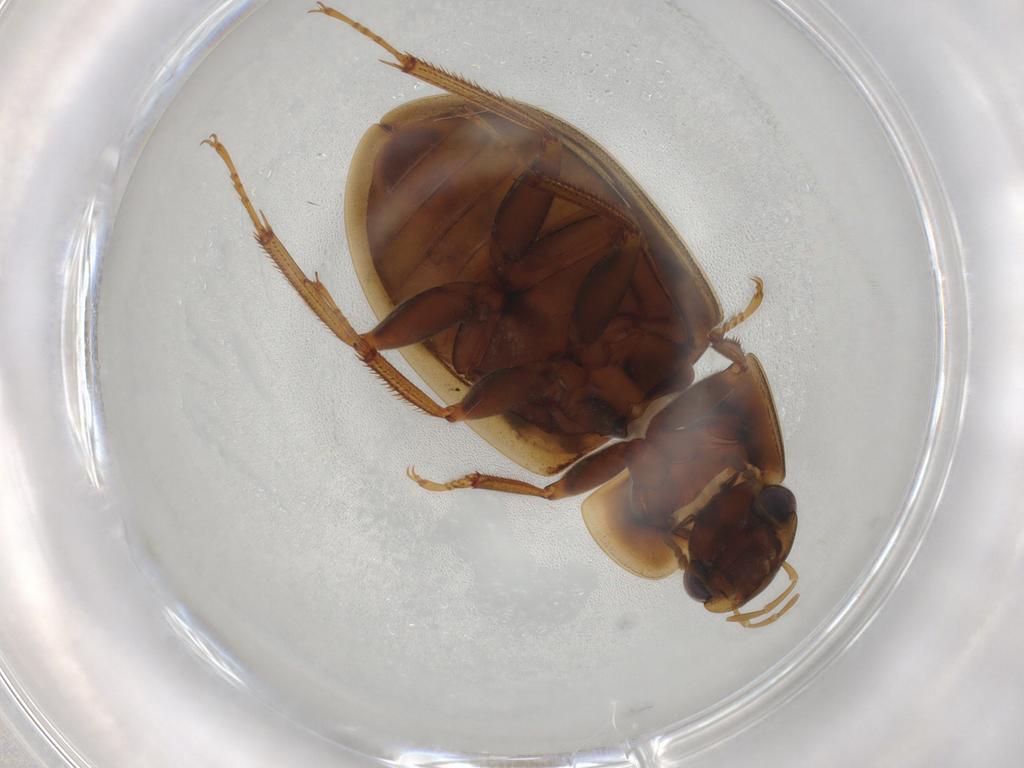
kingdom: Animalia
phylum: Arthropoda
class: Insecta
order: Coleoptera
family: Hydrophilidae
